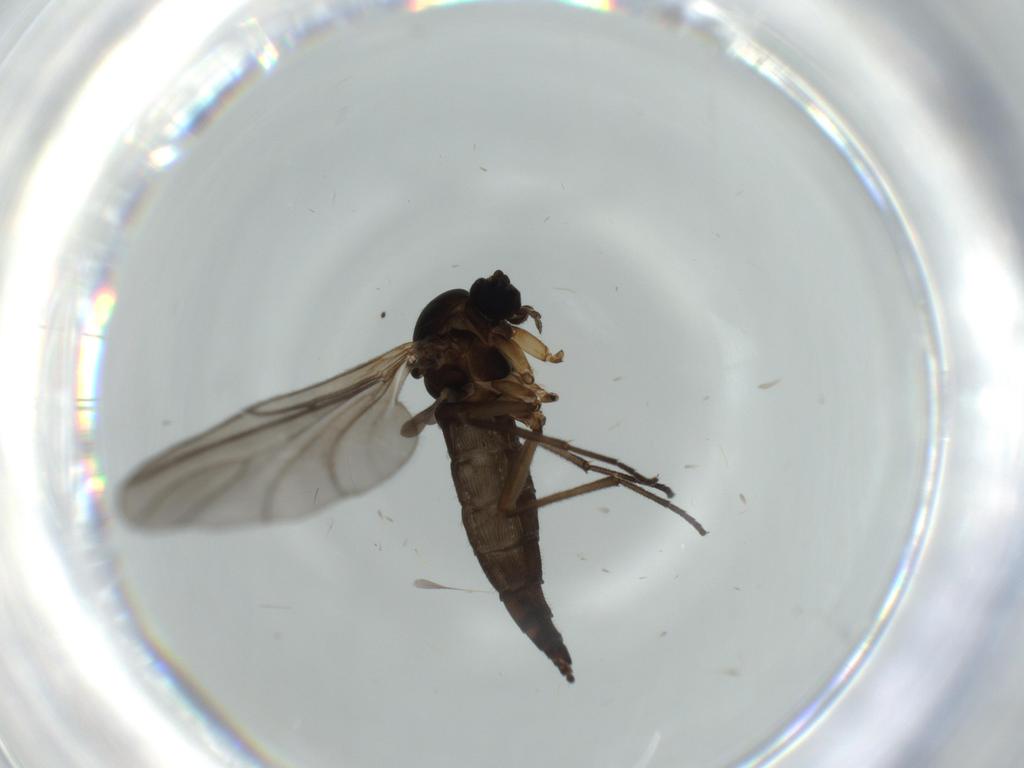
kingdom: Animalia
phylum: Arthropoda
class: Insecta
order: Diptera
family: Sciaridae
